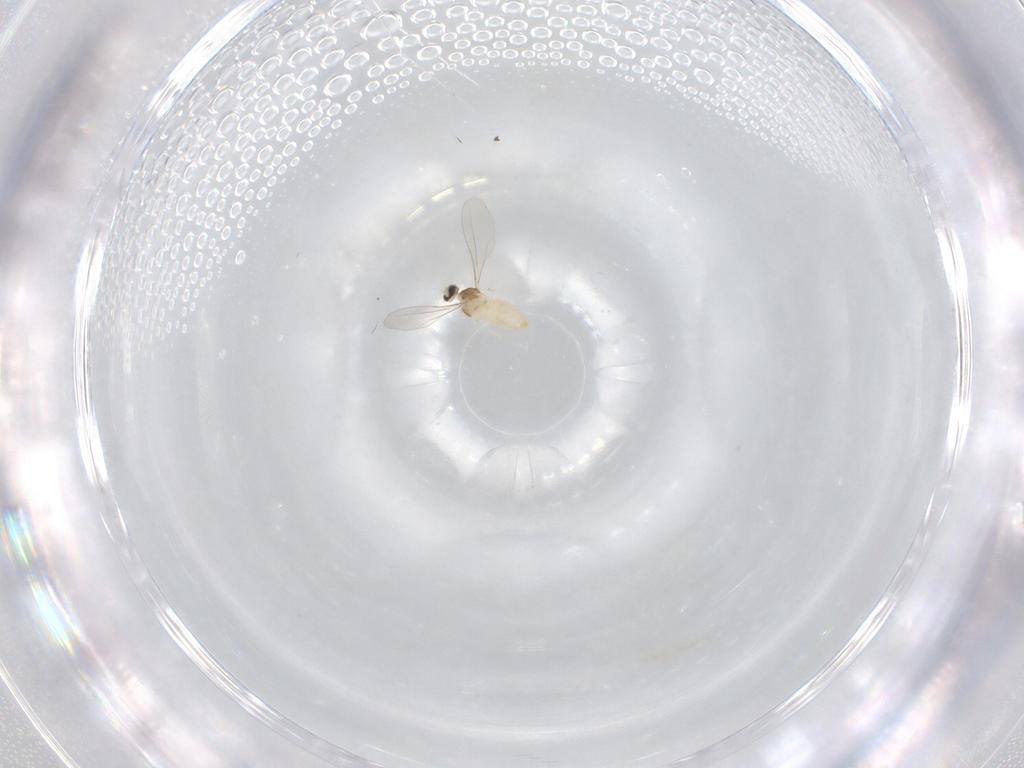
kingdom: Animalia
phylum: Arthropoda
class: Insecta
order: Diptera
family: Cecidomyiidae
